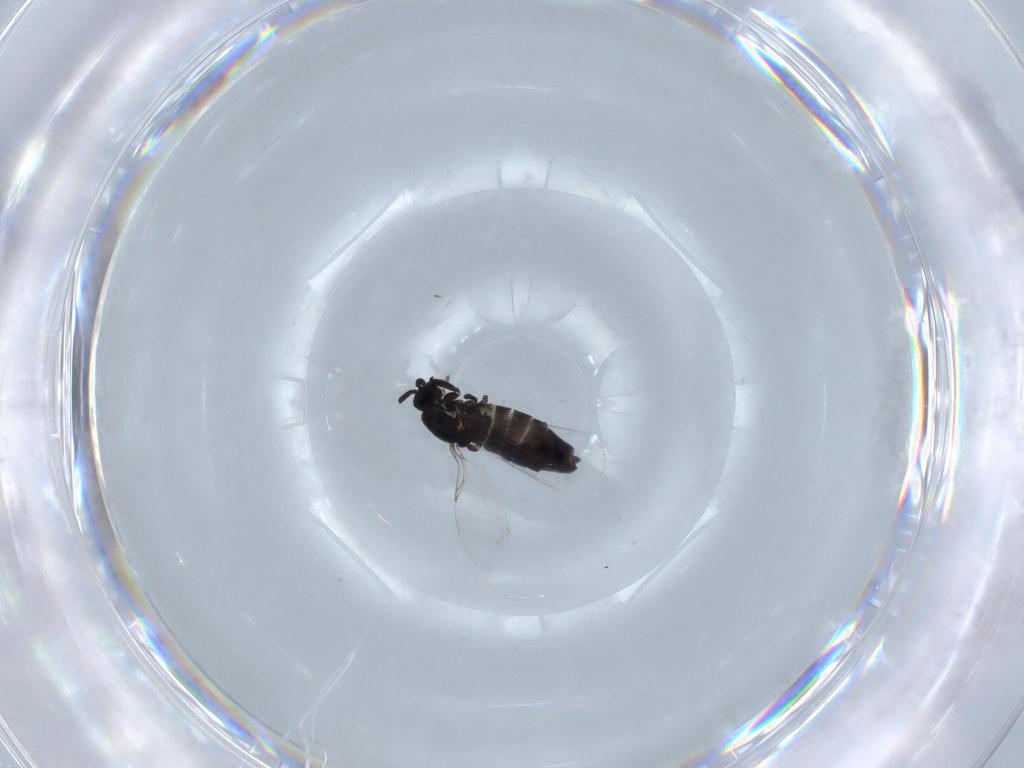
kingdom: Animalia
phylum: Arthropoda
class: Insecta
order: Diptera
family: Scatopsidae
